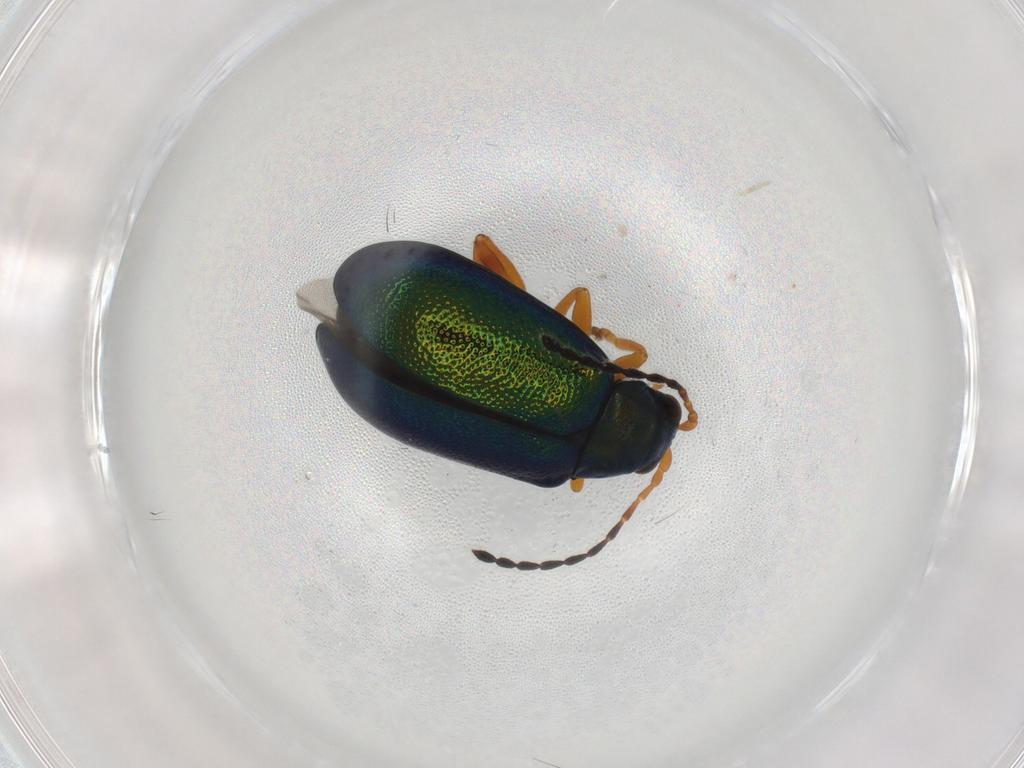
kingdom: Animalia
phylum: Arthropoda
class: Insecta
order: Coleoptera
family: Chrysomelidae
